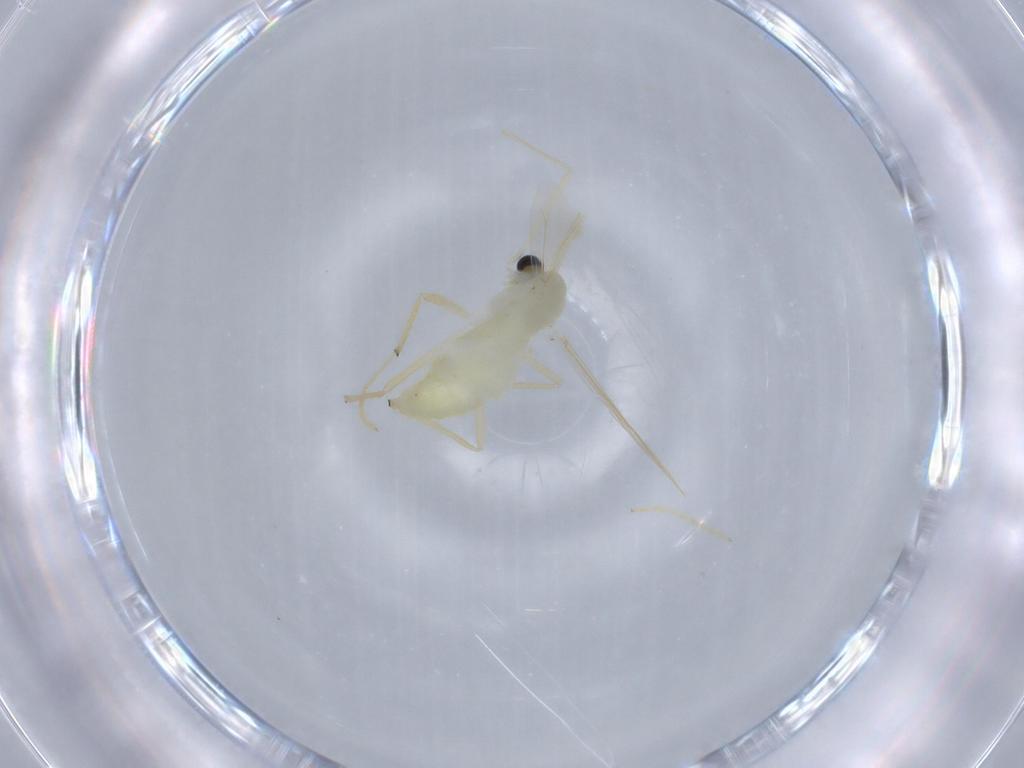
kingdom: Animalia
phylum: Arthropoda
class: Insecta
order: Diptera
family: Chironomidae
